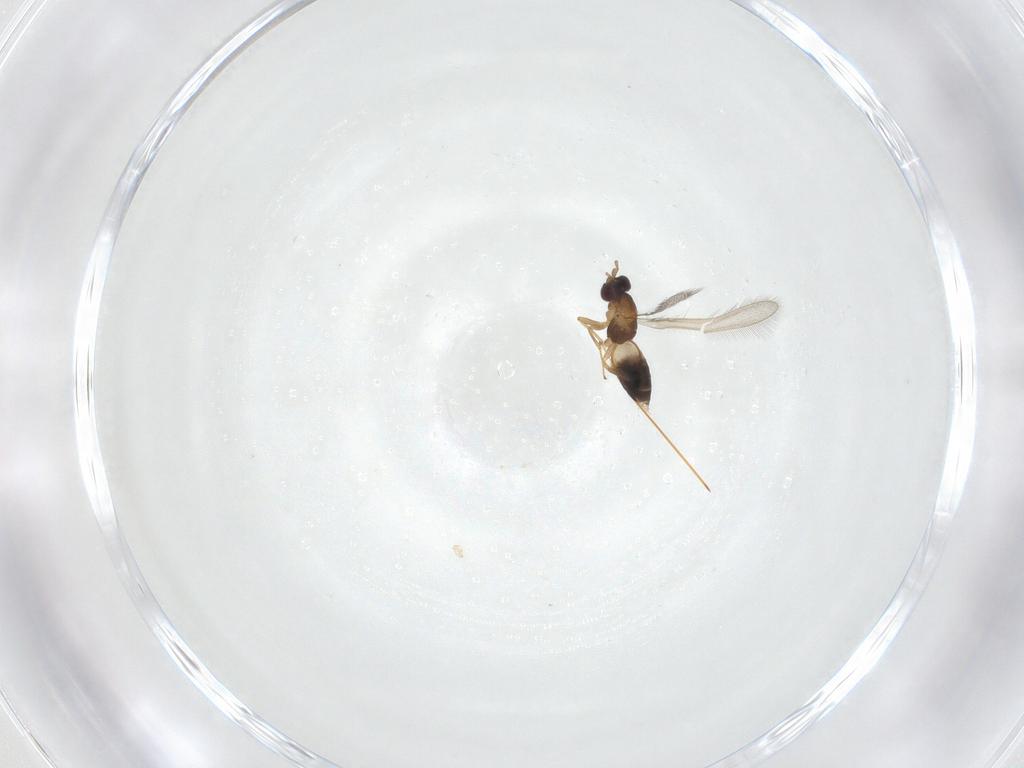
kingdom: Animalia
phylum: Arthropoda
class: Insecta
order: Hymenoptera
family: Mymaridae
